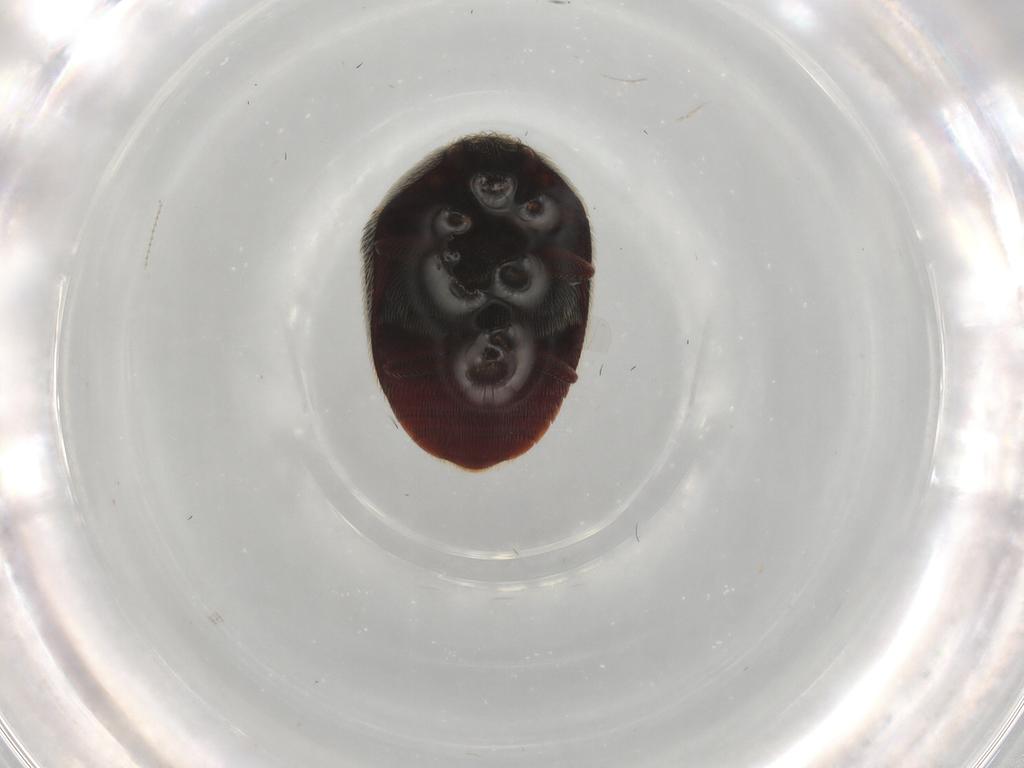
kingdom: Animalia
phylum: Arthropoda
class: Insecta
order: Coleoptera
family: Dermestidae
